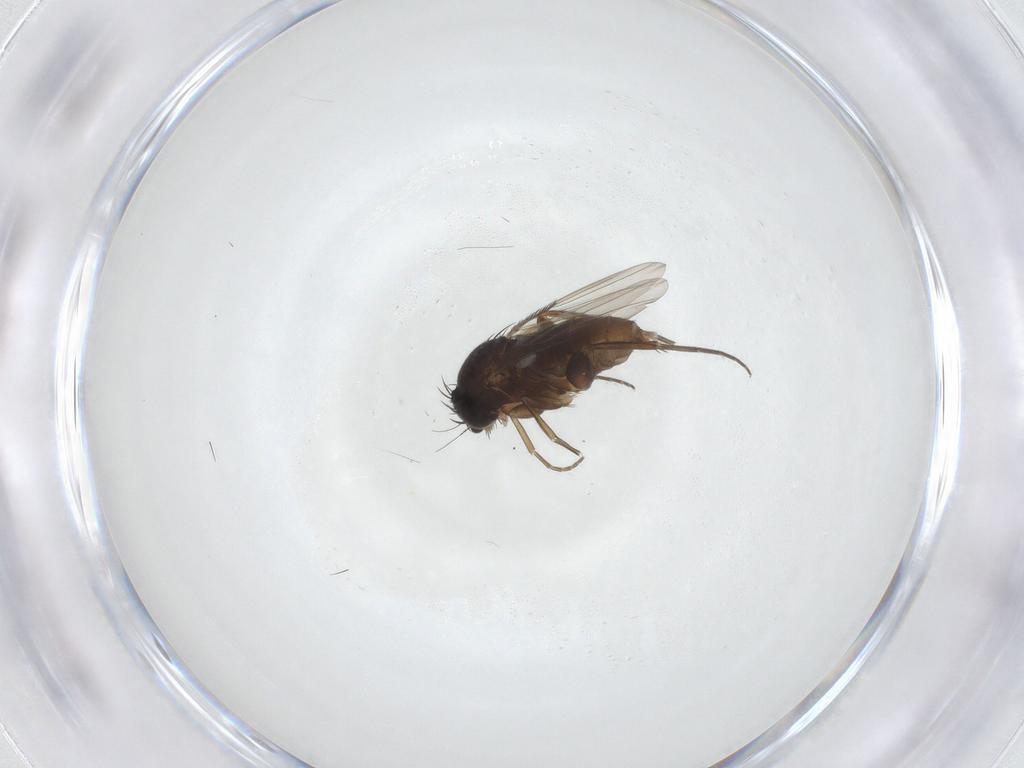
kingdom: Animalia
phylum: Arthropoda
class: Insecta
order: Diptera
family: Phoridae
